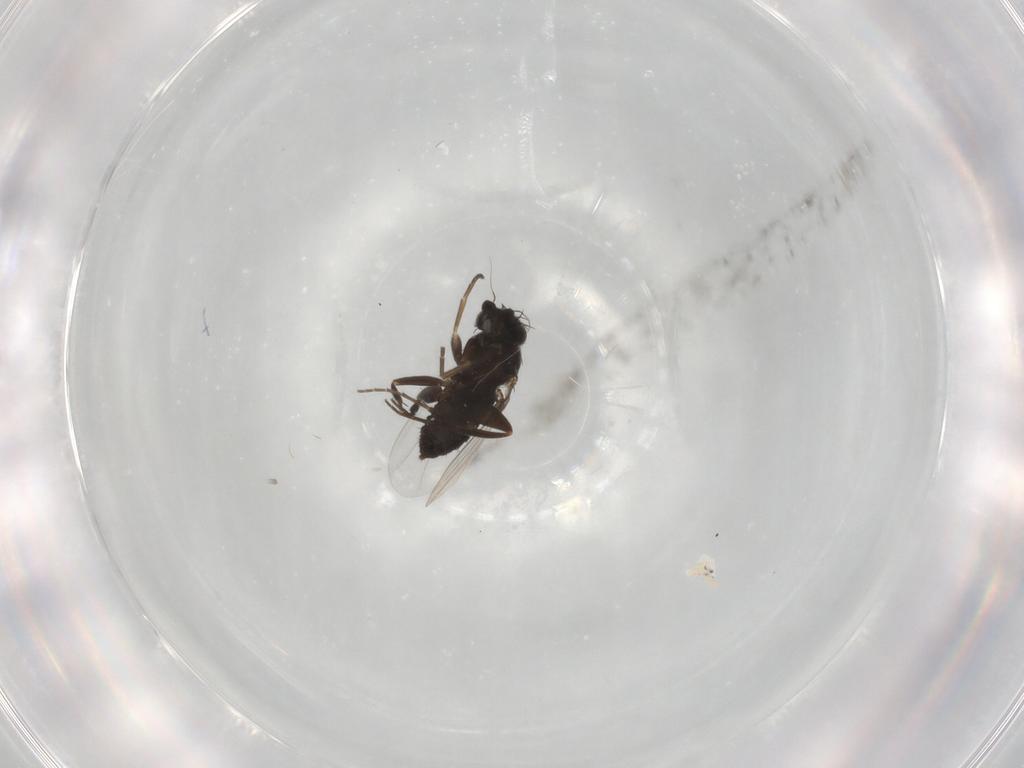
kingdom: Animalia
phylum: Arthropoda
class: Insecta
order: Diptera
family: Phoridae
